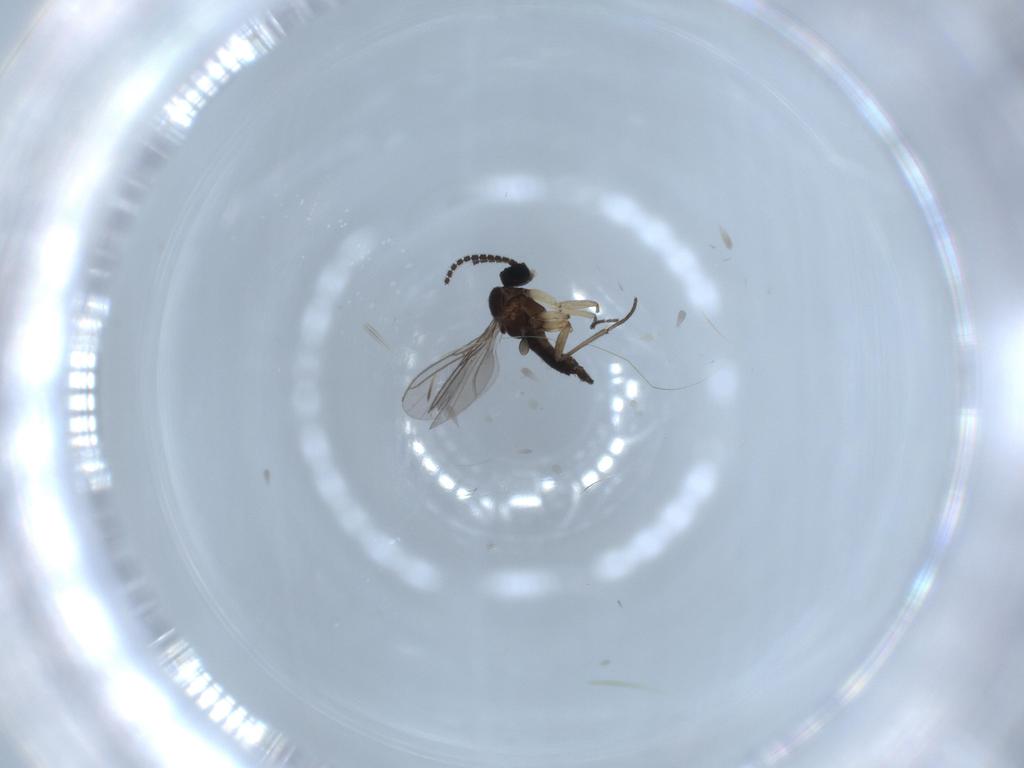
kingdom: Animalia
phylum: Arthropoda
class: Insecta
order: Diptera
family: Sciaridae
